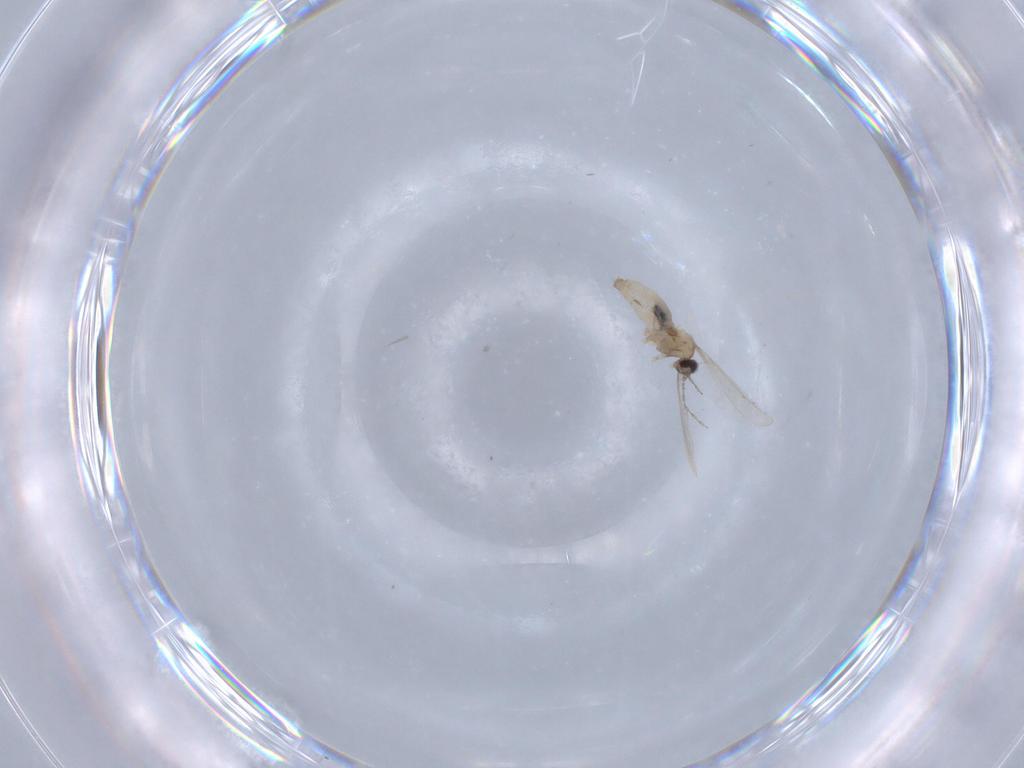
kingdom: Animalia
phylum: Arthropoda
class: Insecta
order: Diptera
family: Cecidomyiidae
